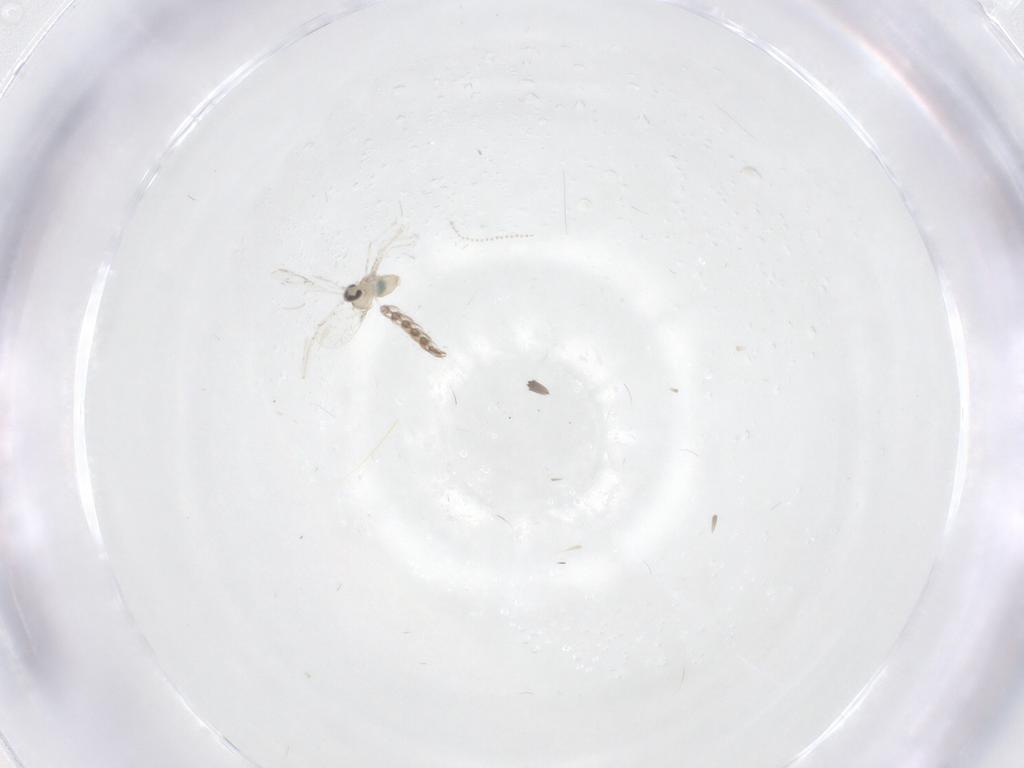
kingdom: Animalia
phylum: Arthropoda
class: Insecta
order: Diptera
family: Cecidomyiidae
